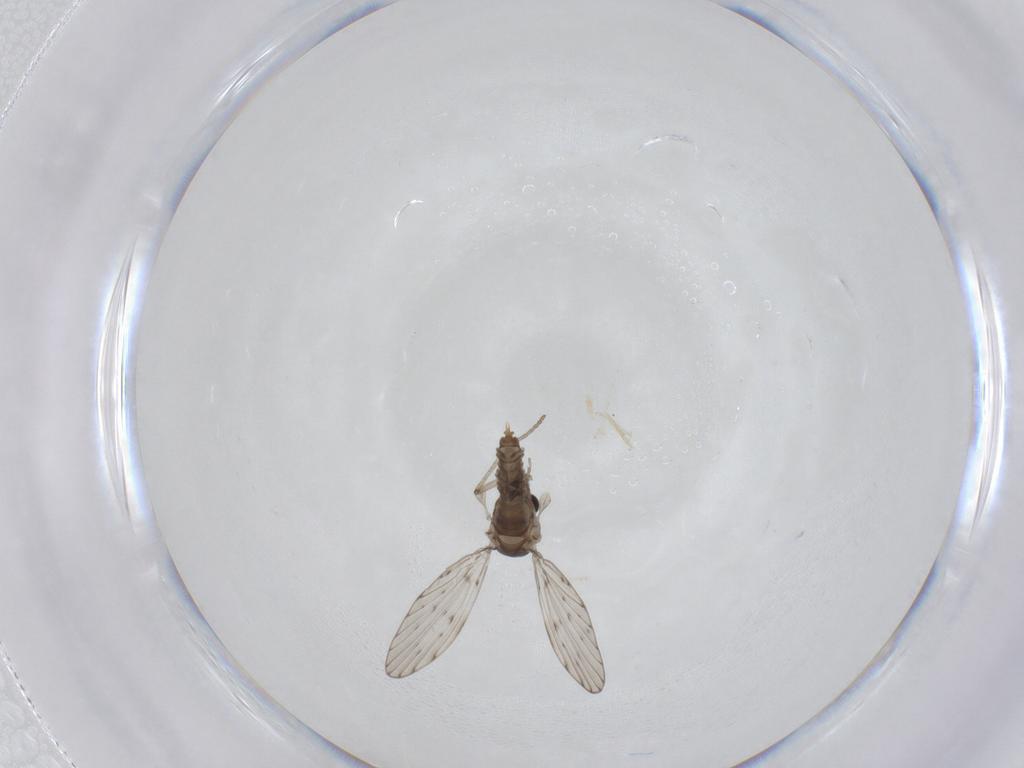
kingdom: Animalia
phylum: Arthropoda
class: Insecta
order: Diptera
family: Psychodidae
